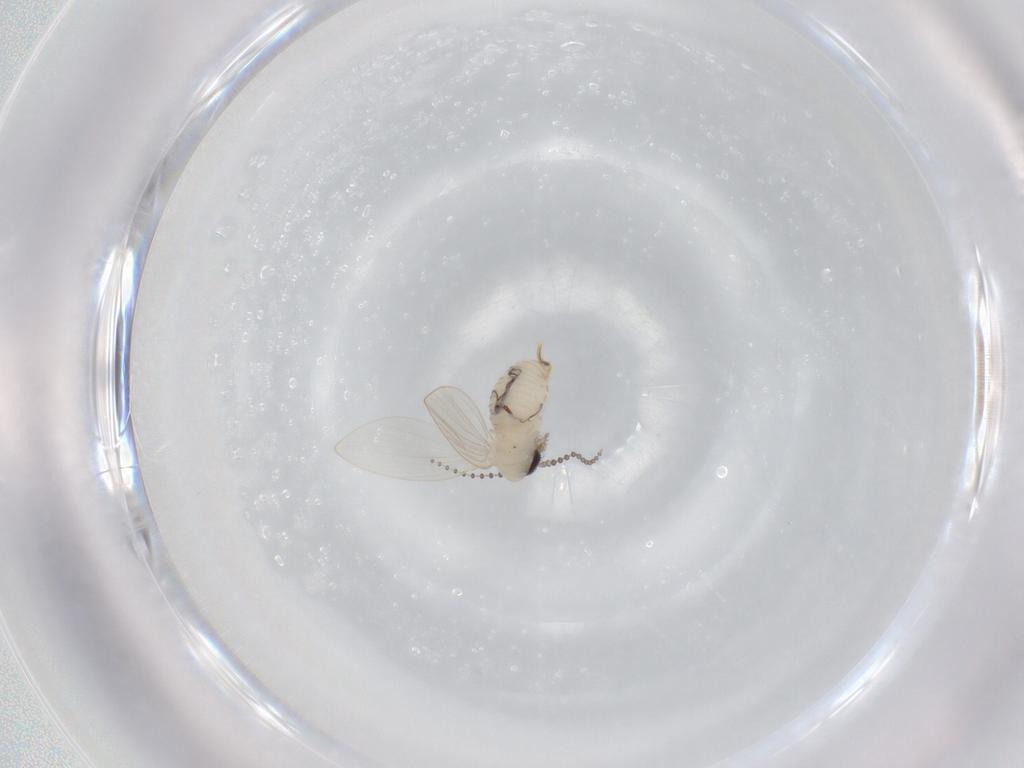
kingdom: Animalia
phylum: Arthropoda
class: Insecta
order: Diptera
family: Psychodidae
